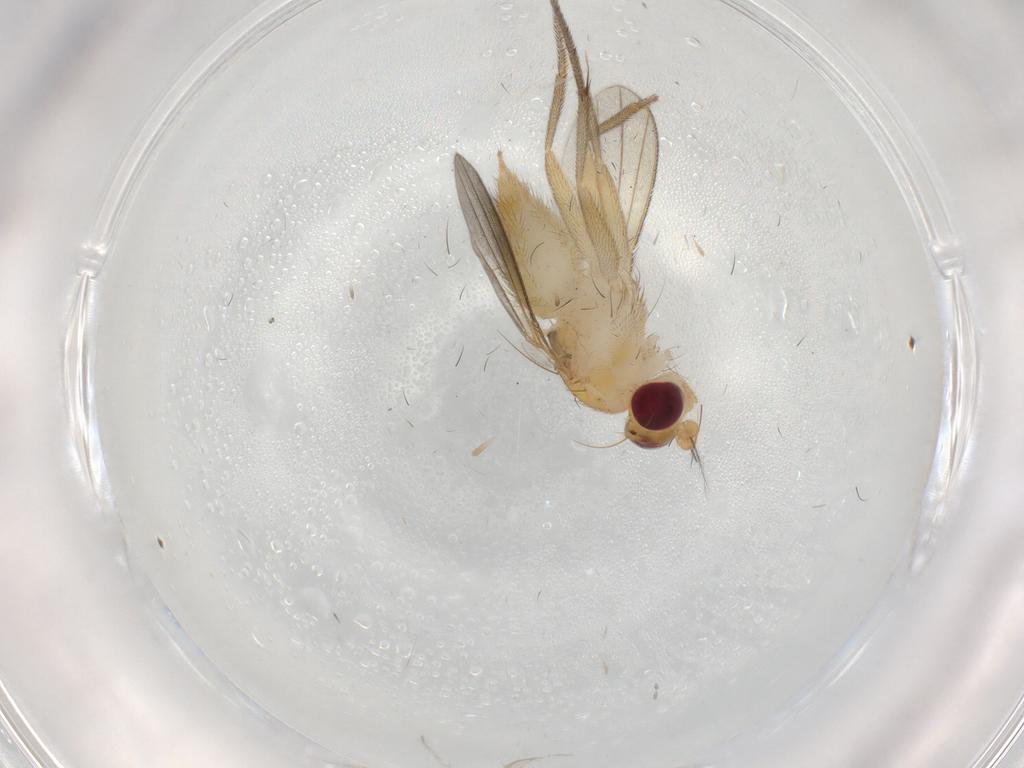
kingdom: Animalia
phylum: Arthropoda
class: Insecta
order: Diptera
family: Clusiidae
